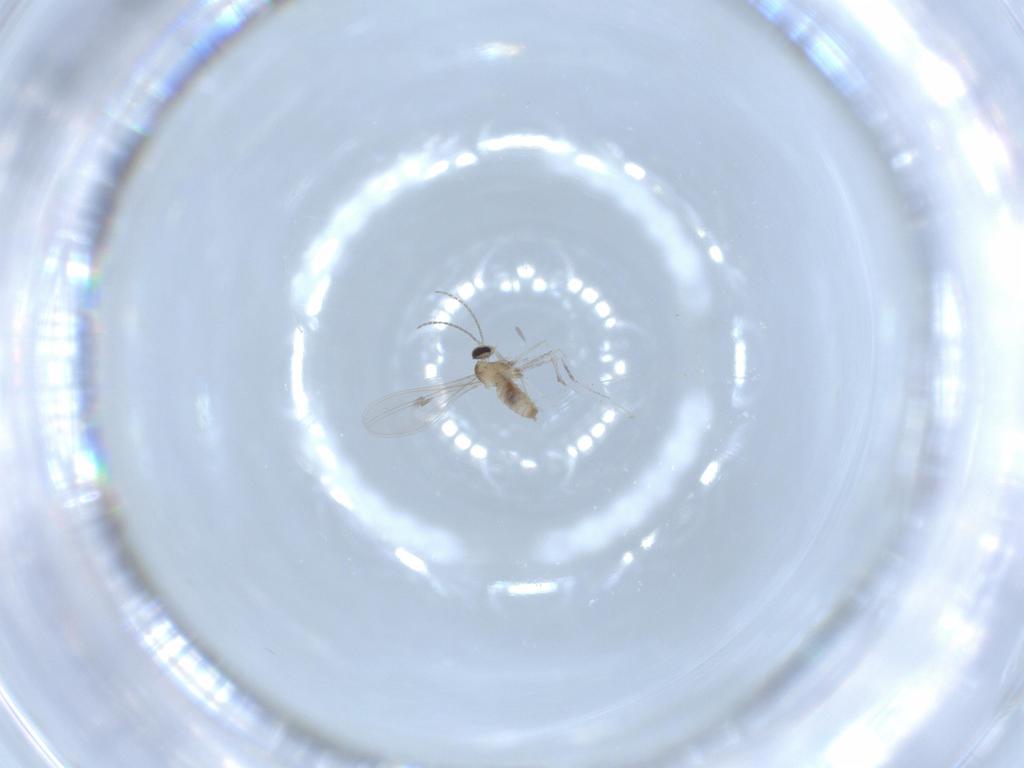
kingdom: Animalia
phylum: Arthropoda
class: Insecta
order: Diptera
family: Cecidomyiidae
